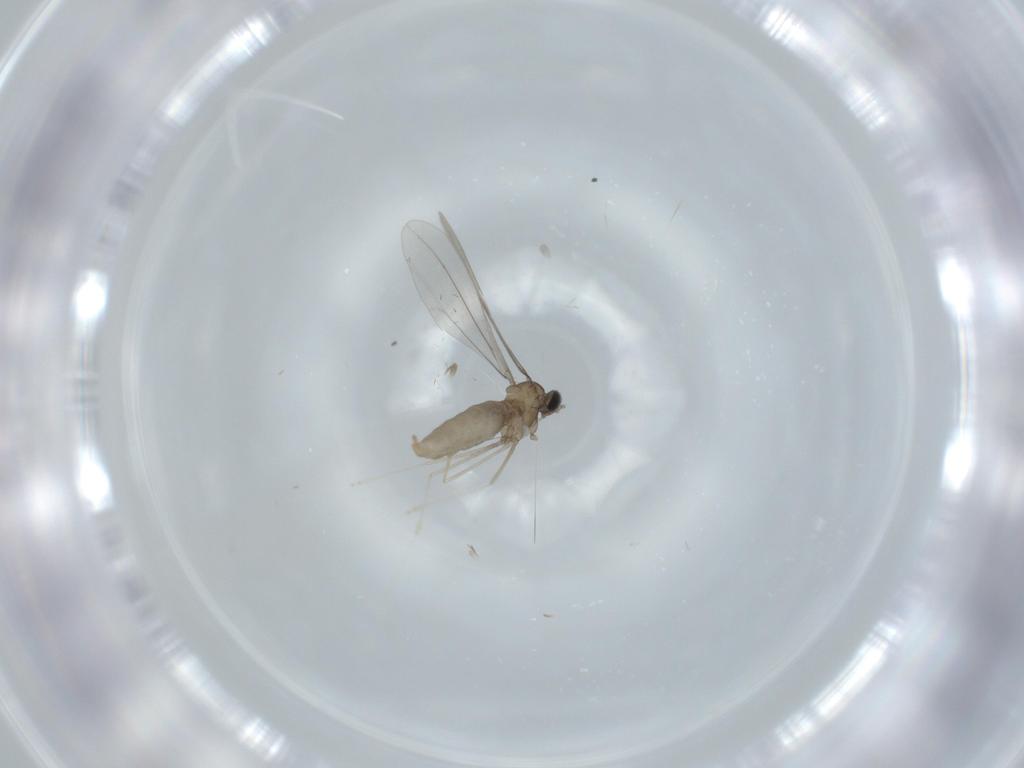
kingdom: Animalia
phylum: Arthropoda
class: Insecta
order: Diptera
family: Cecidomyiidae
